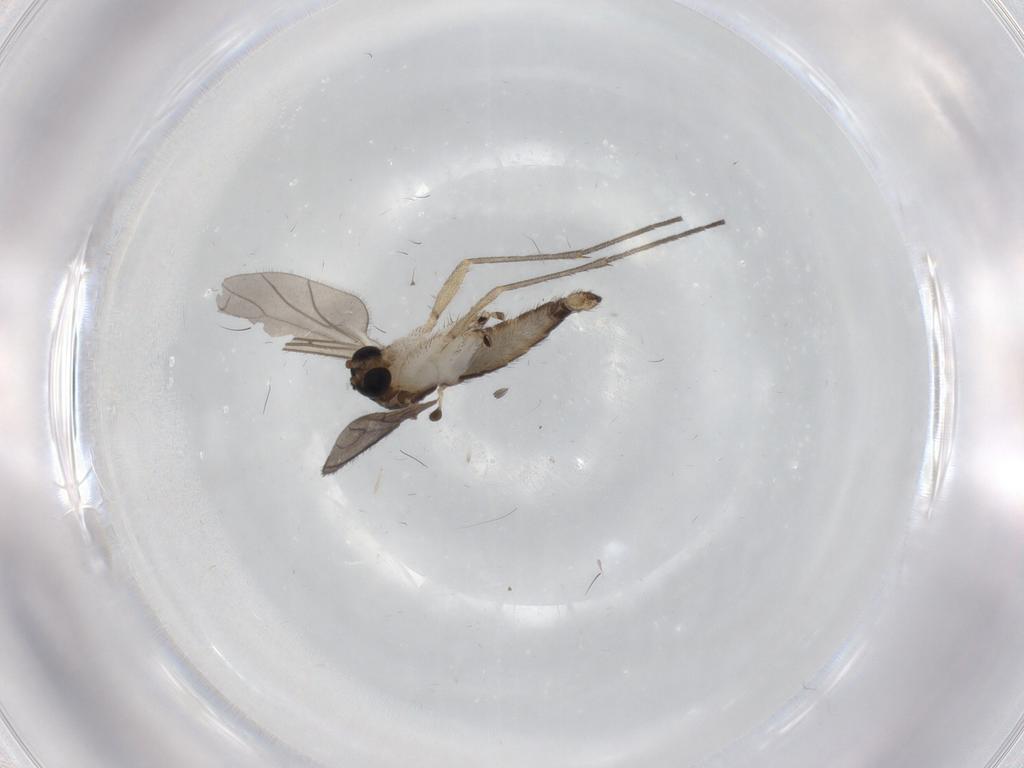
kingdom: Animalia
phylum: Arthropoda
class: Insecta
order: Diptera
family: Sciaridae
